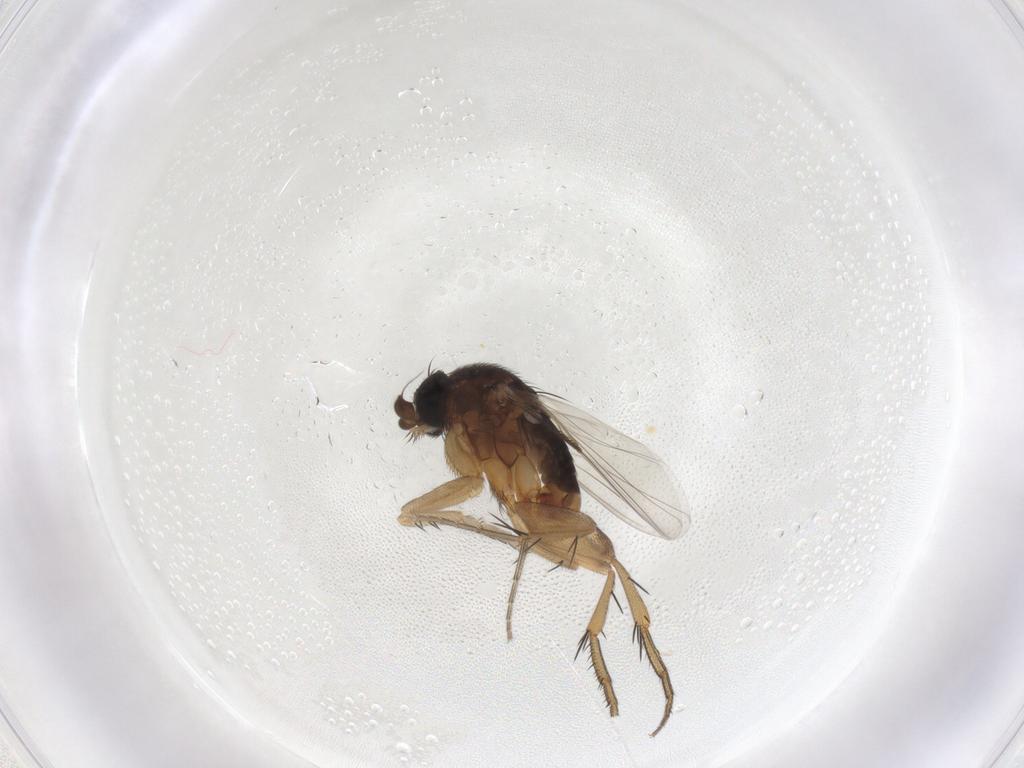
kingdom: Animalia
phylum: Arthropoda
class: Insecta
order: Diptera
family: Phoridae
